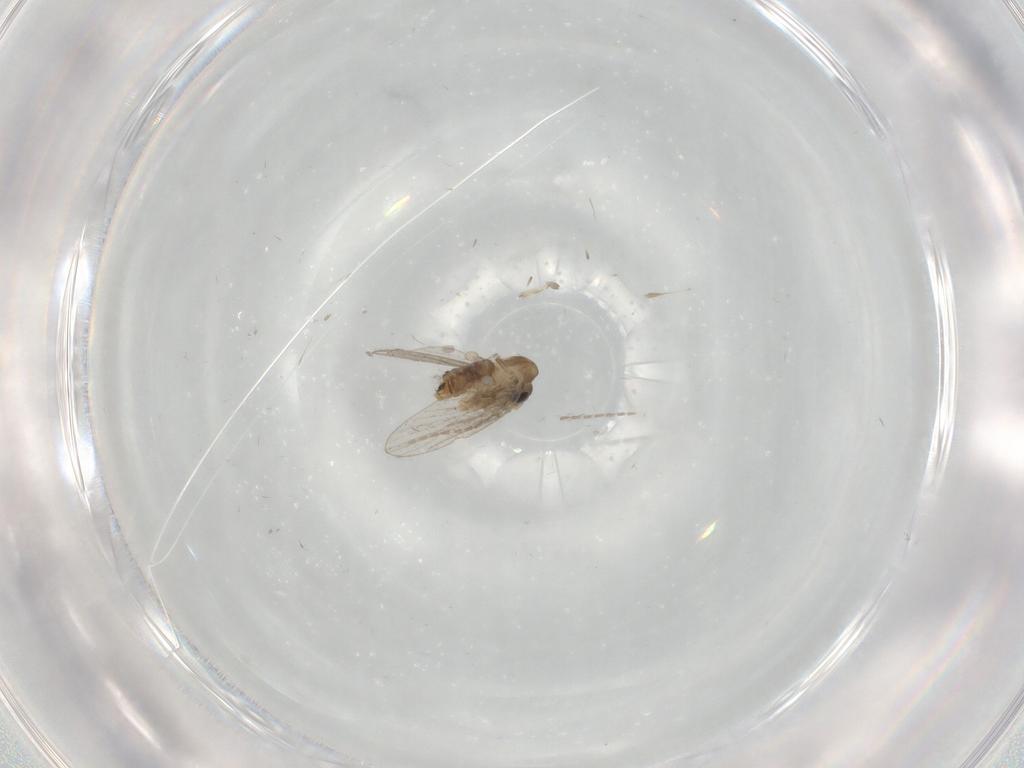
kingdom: Animalia
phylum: Arthropoda
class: Insecta
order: Diptera
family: Psychodidae
